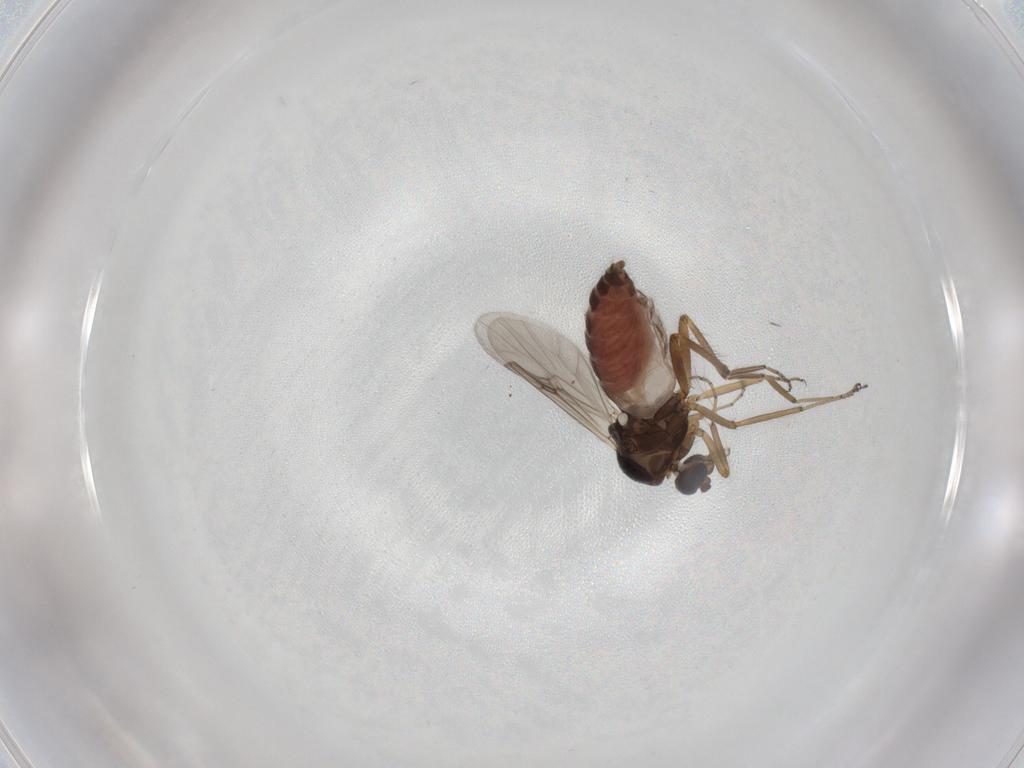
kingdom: Animalia
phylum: Arthropoda
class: Insecta
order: Diptera
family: Ceratopogonidae
